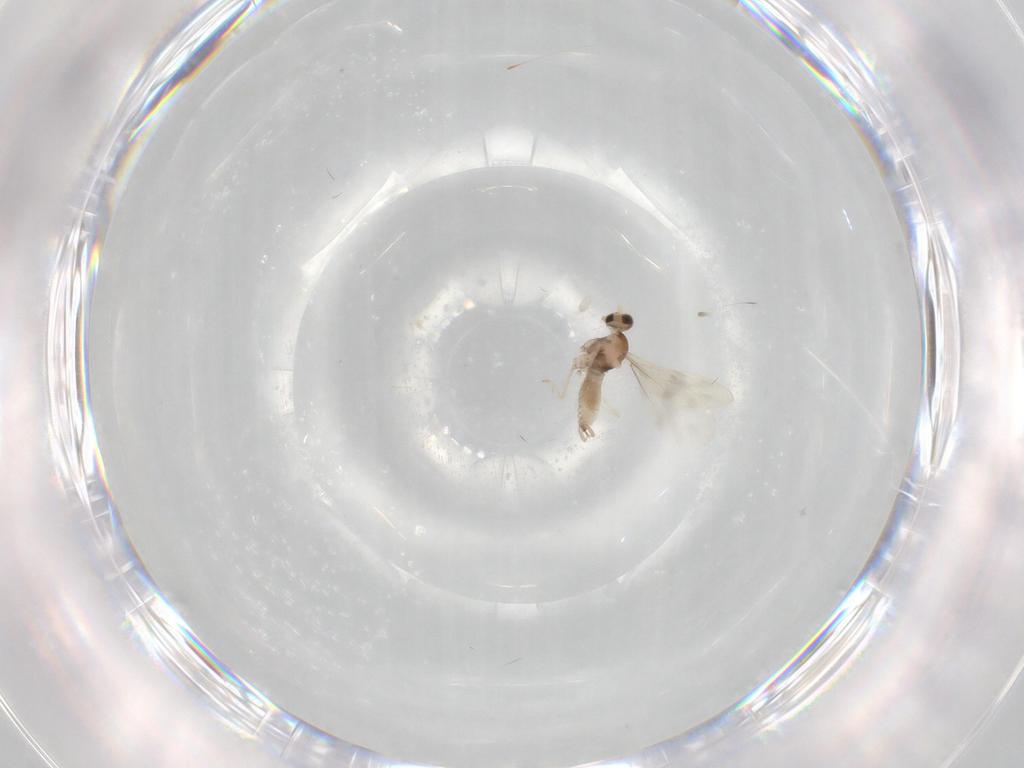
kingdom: Animalia
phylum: Arthropoda
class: Insecta
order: Diptera
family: Cecidomyiidae
